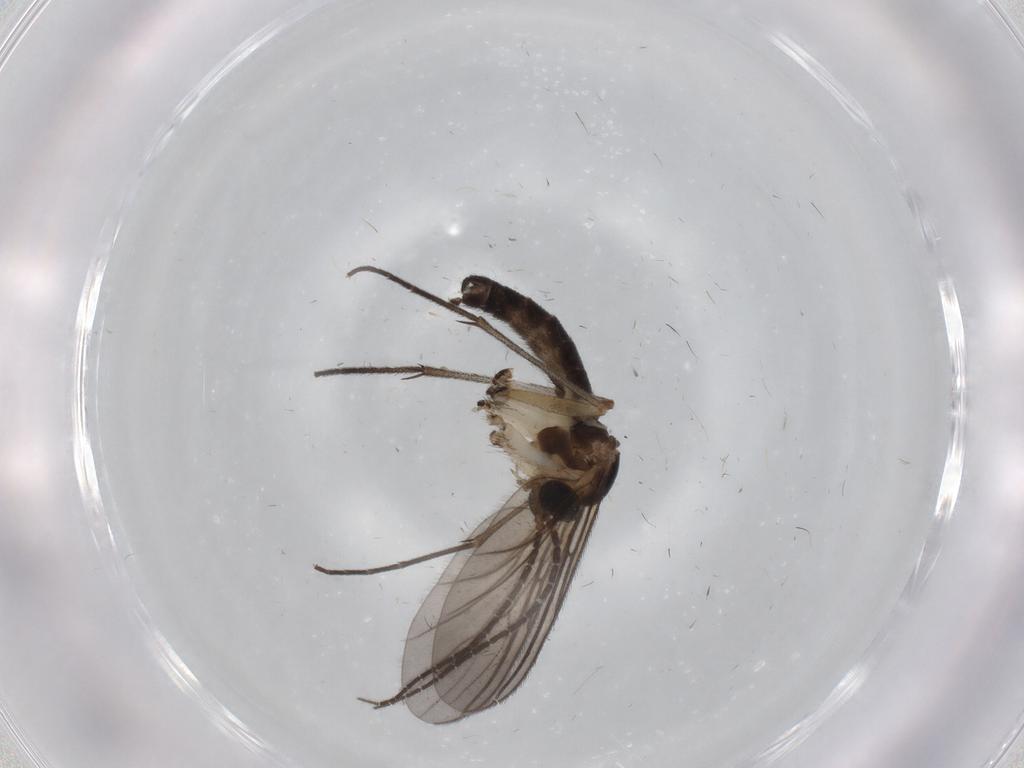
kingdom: Animalia
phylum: Arthropoda
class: Insecta
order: Diptera
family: Sciaridae
